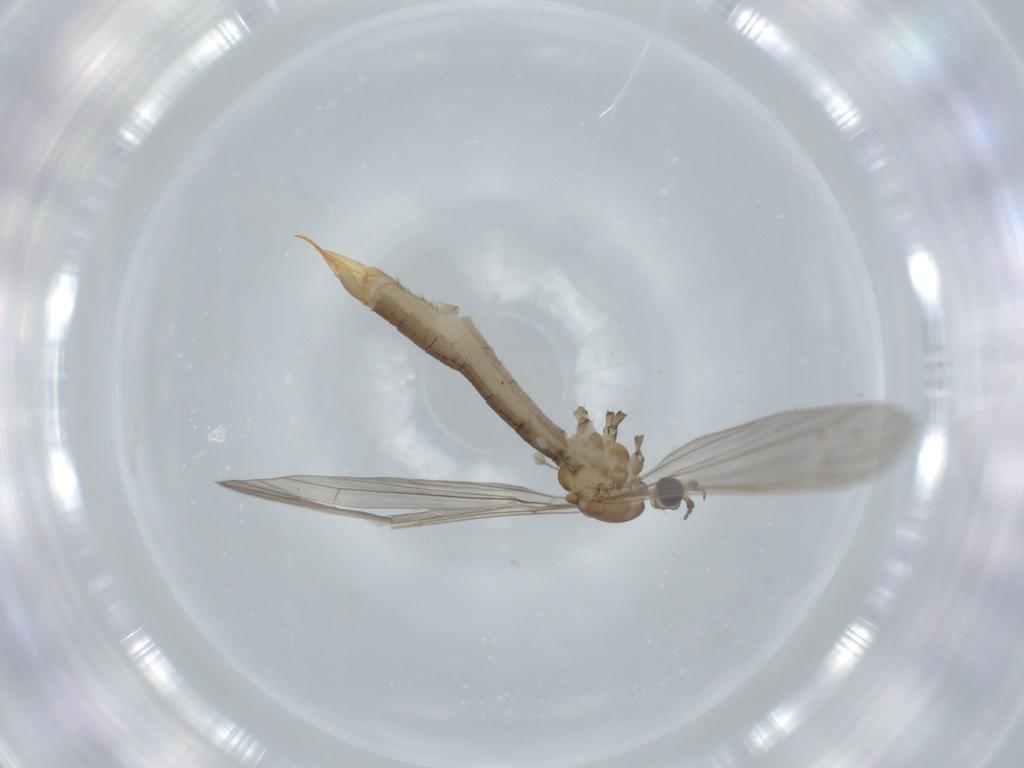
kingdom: Animalia
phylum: Arthropoda
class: Insecta
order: Diptera
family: Limoniidae
